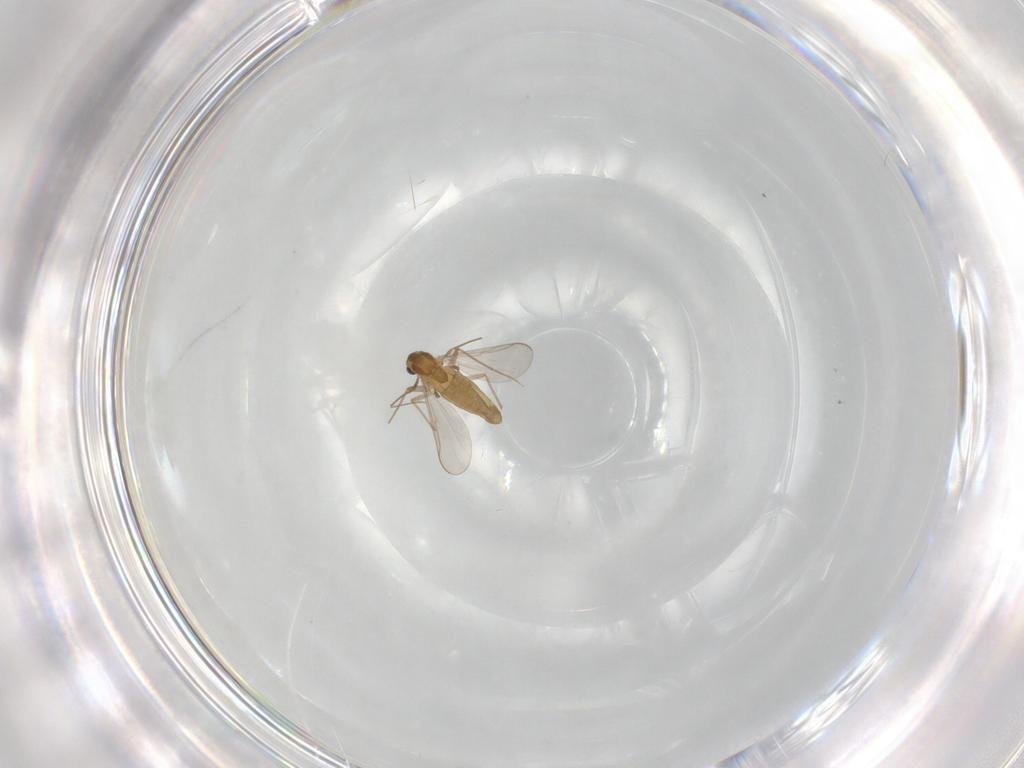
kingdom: Animalia
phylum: Arthropoda
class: Insecta
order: Diptera
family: Chironomidae
